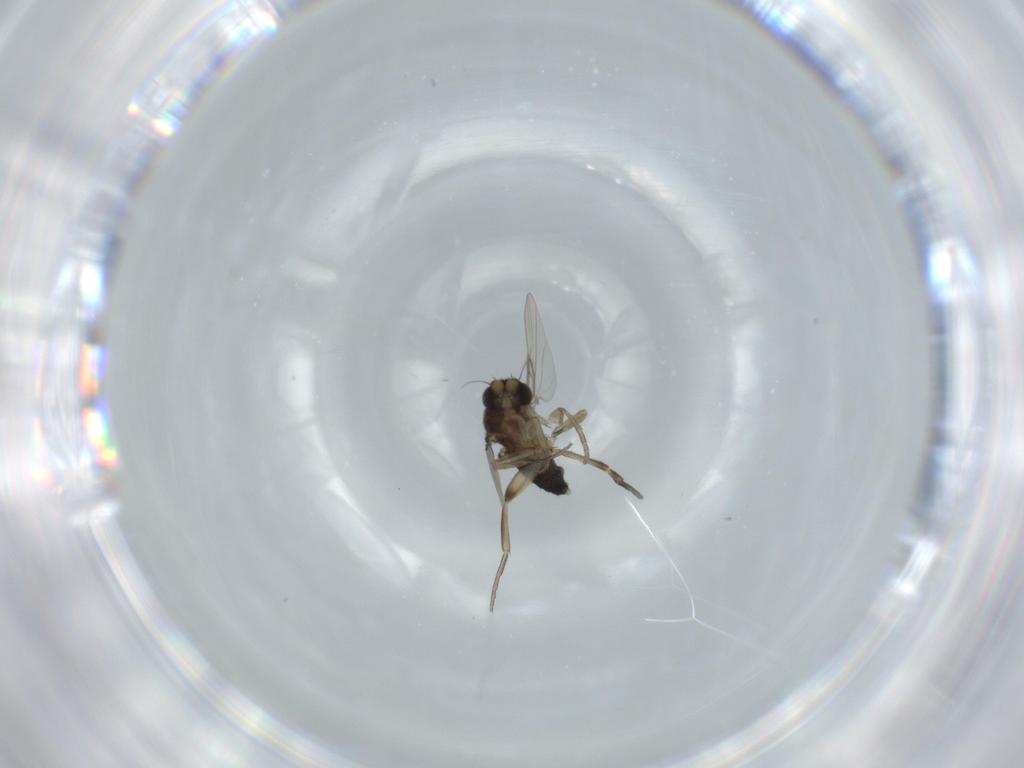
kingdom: Animalia
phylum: Arthropoda
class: Insecta
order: Diptera
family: Phoridae
